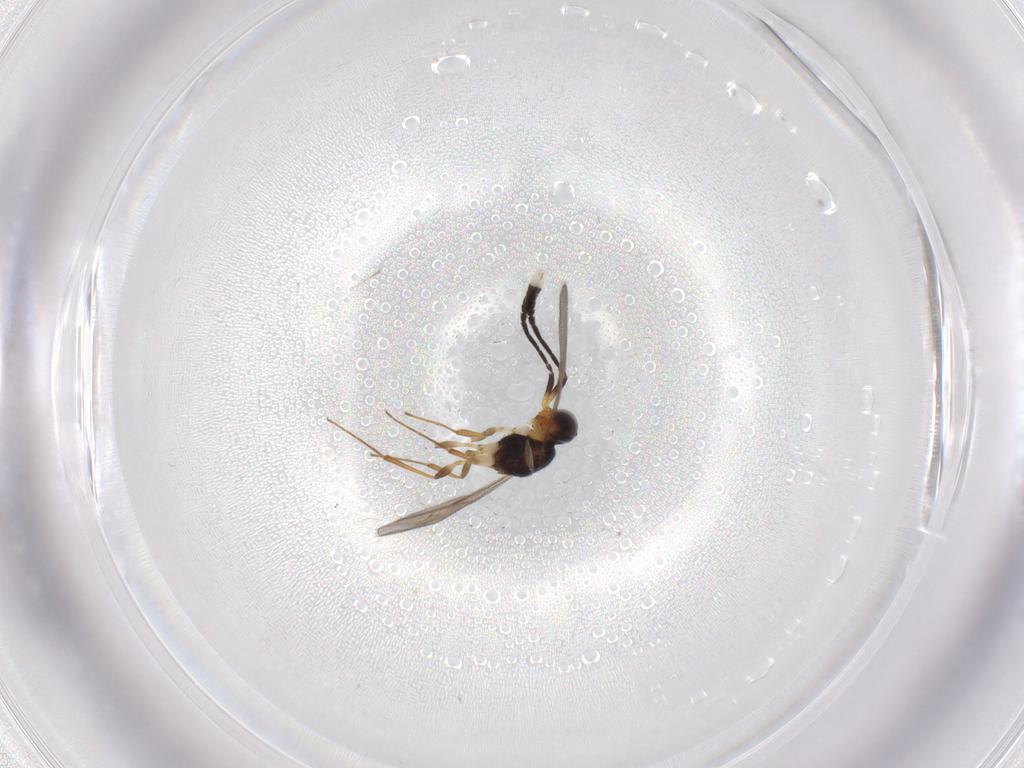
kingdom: Animalia
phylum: Arthropoda
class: Insecta
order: Hymenoptera
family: Scelionidae
